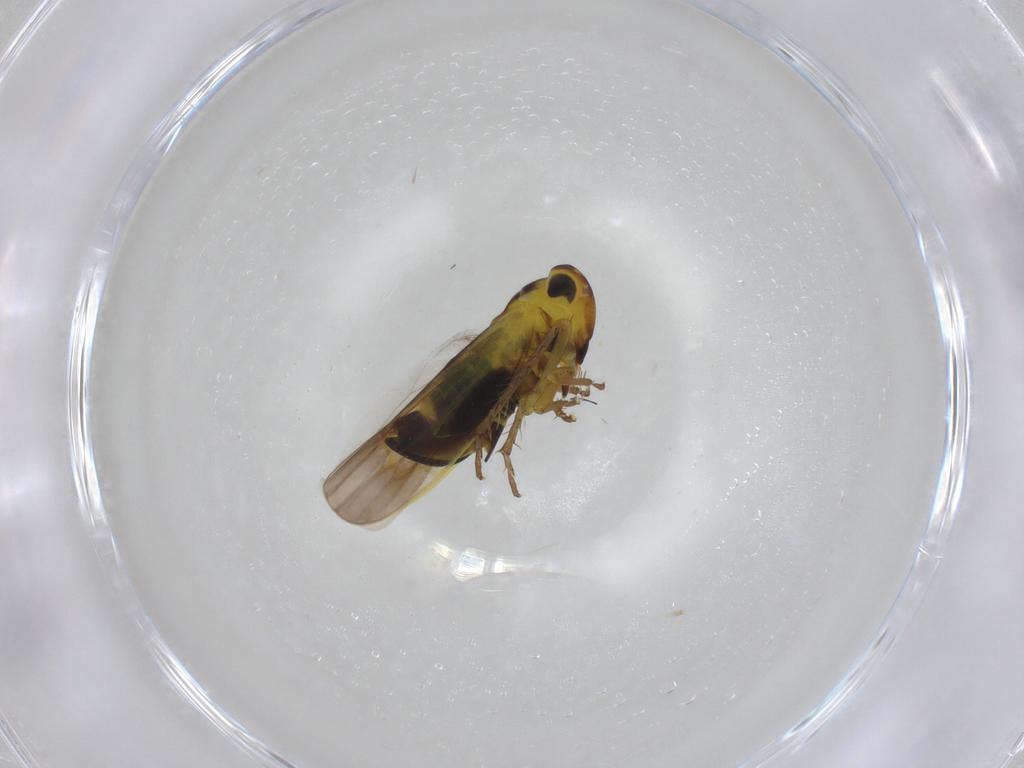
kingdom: Animalia
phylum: Arthropoda
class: Insecta
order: Hemiptera
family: Cicadellidae
